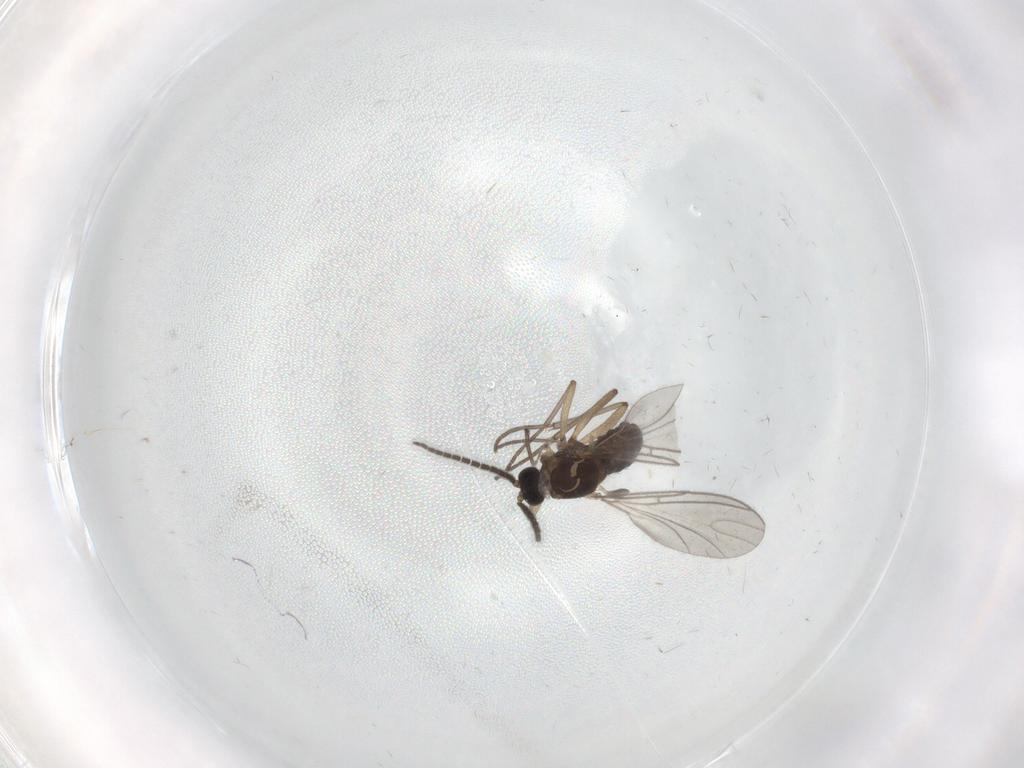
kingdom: Animalia
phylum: Arthropoda
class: Insecta
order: Diptera
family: Sciaridae
